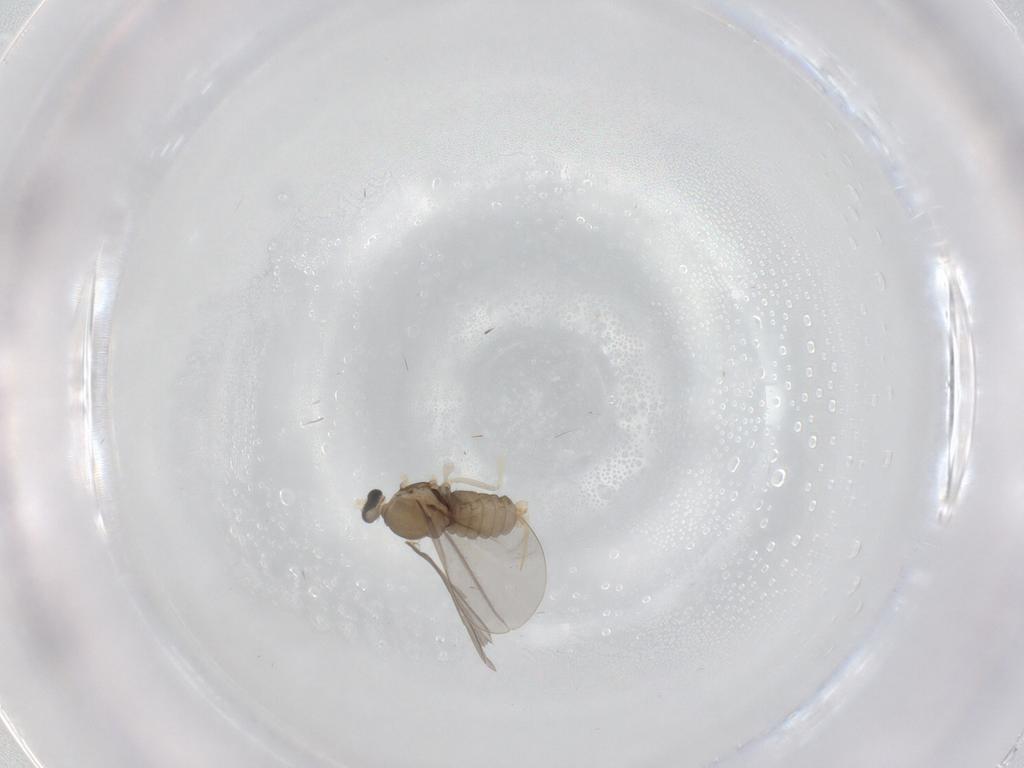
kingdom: Animalia
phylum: Arthropoda
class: Insecta
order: Diptera
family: Cecidomyiidae
